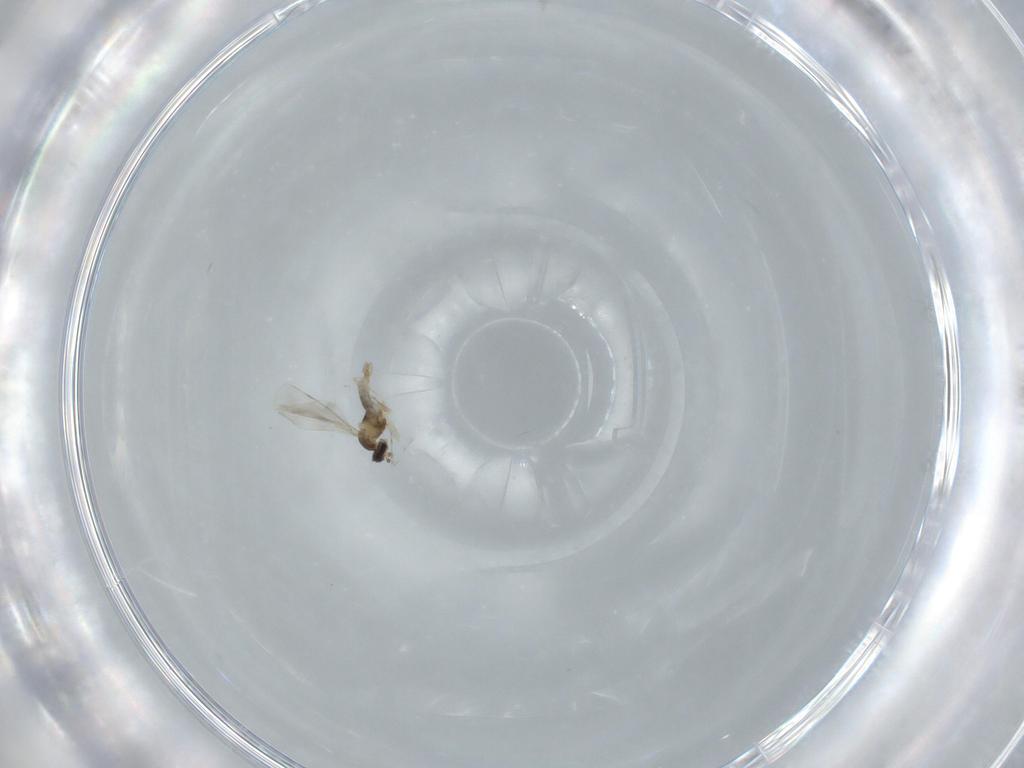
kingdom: Animalia
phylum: Arthropoda
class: Insecta
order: Diptera
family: Cecidomyiidae
